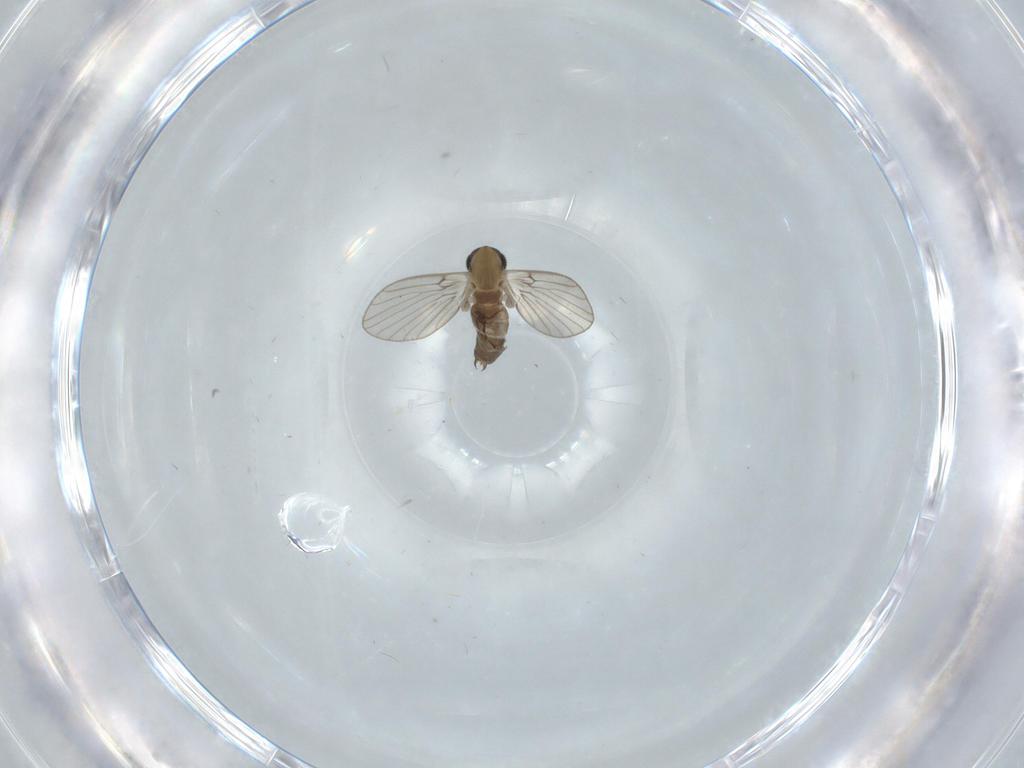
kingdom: Animalia
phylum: Arthropoda
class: Insecta
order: Diptera
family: Psychodidae
